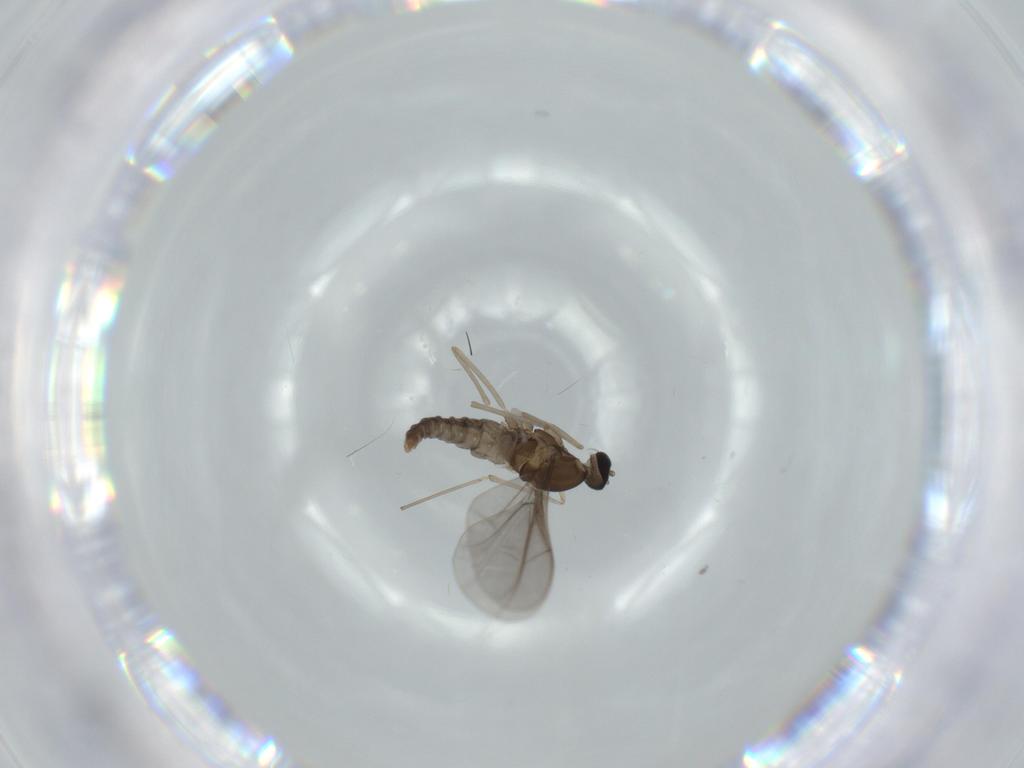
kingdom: Animalia
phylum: Arthropoda
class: Insecta
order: Diptera
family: Cecidomyiidae
